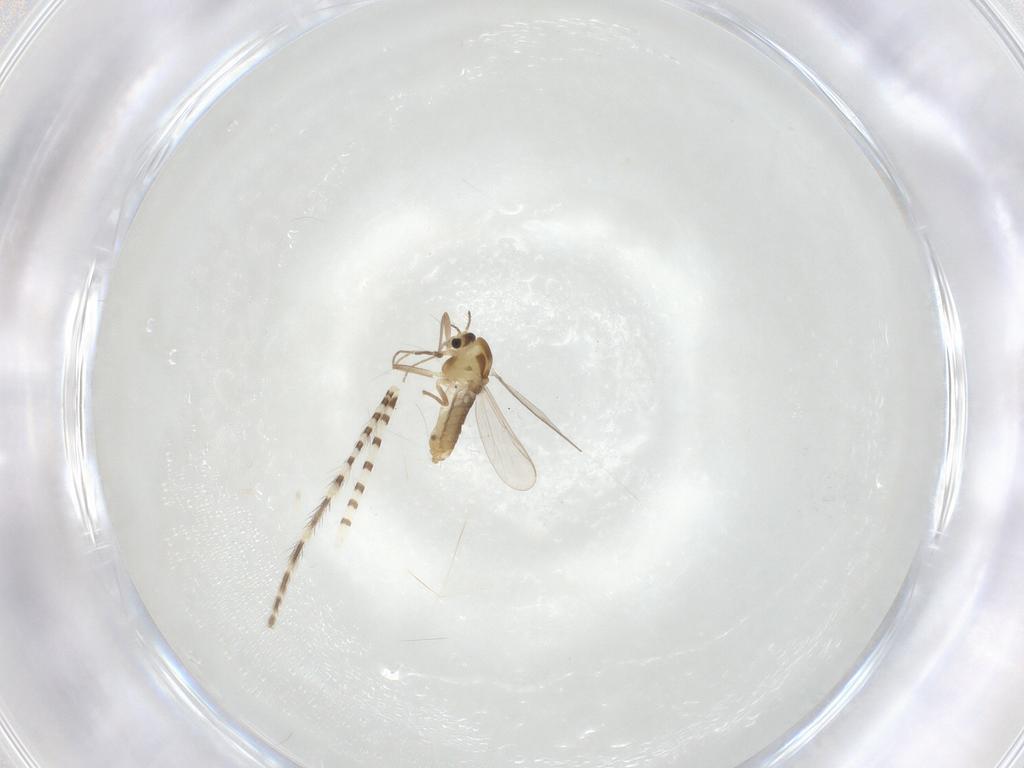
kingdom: Animalia
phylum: Arthropoda
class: Insecta
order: Diptera
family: Chironomidae
